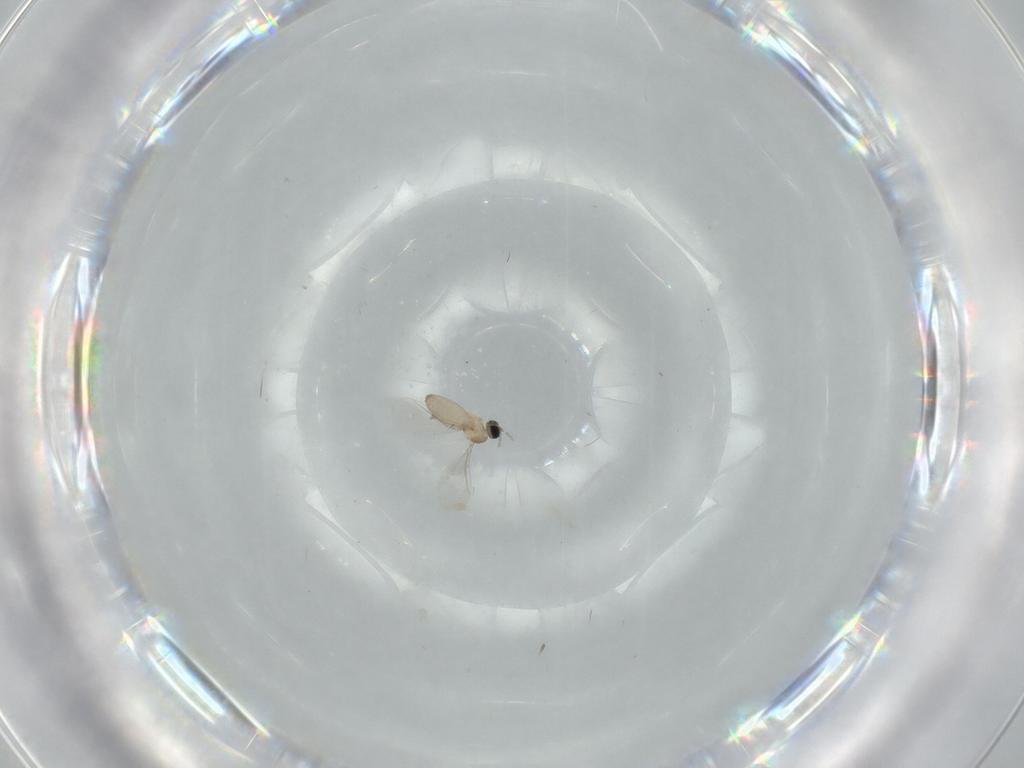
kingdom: Animalia
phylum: Arthropoda
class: Insecta
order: Diptera
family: Cecidomyiidae
